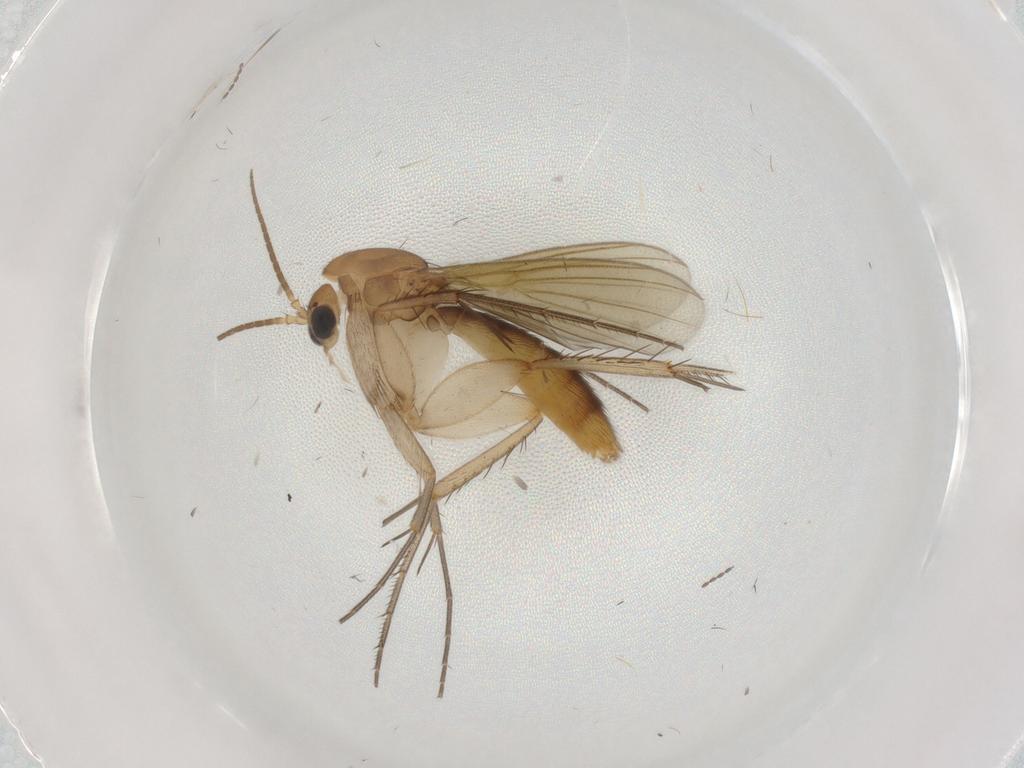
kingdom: Animalia
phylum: Arthropoda
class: Insecta
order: Diptera
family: Mycetophilidae
